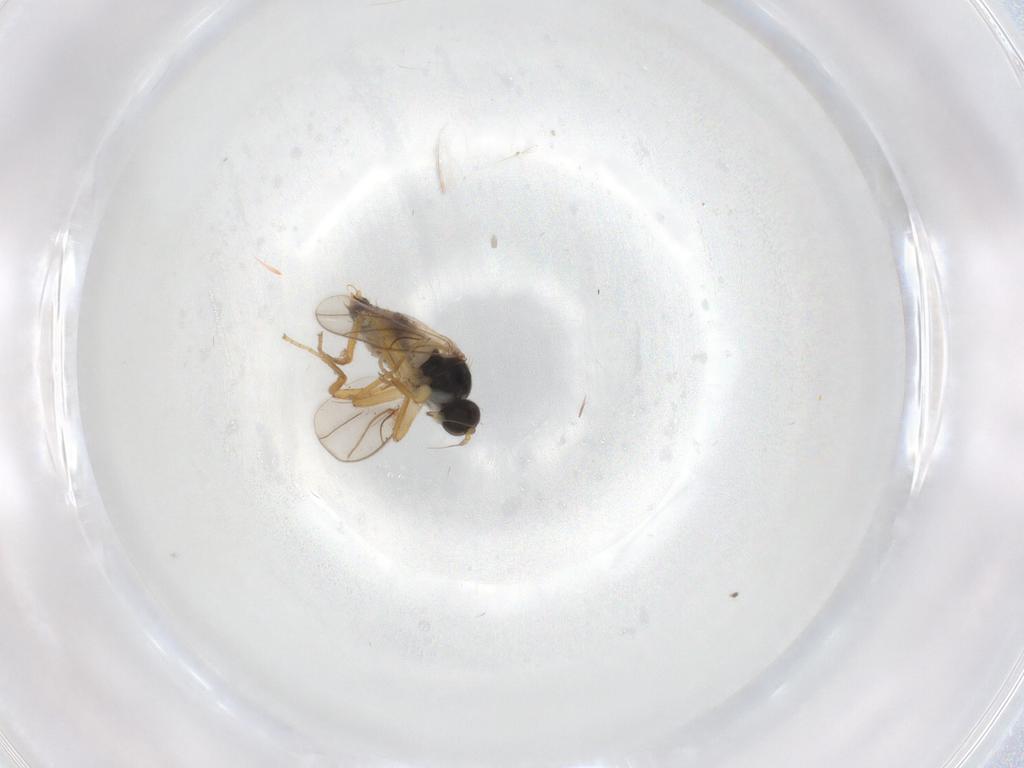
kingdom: Animalia
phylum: Arthropoda
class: Insecta
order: Diptera
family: Hybotidae
